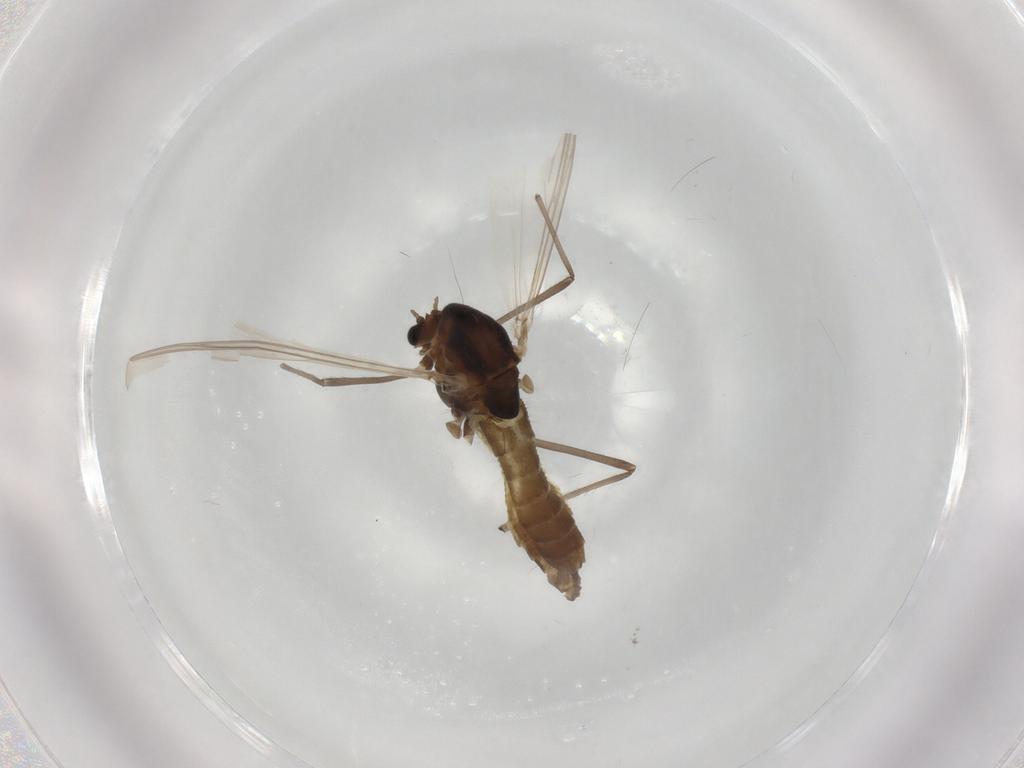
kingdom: Animalia
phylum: Arthropoda
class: Insecta
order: Diptera
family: Chironomidae
